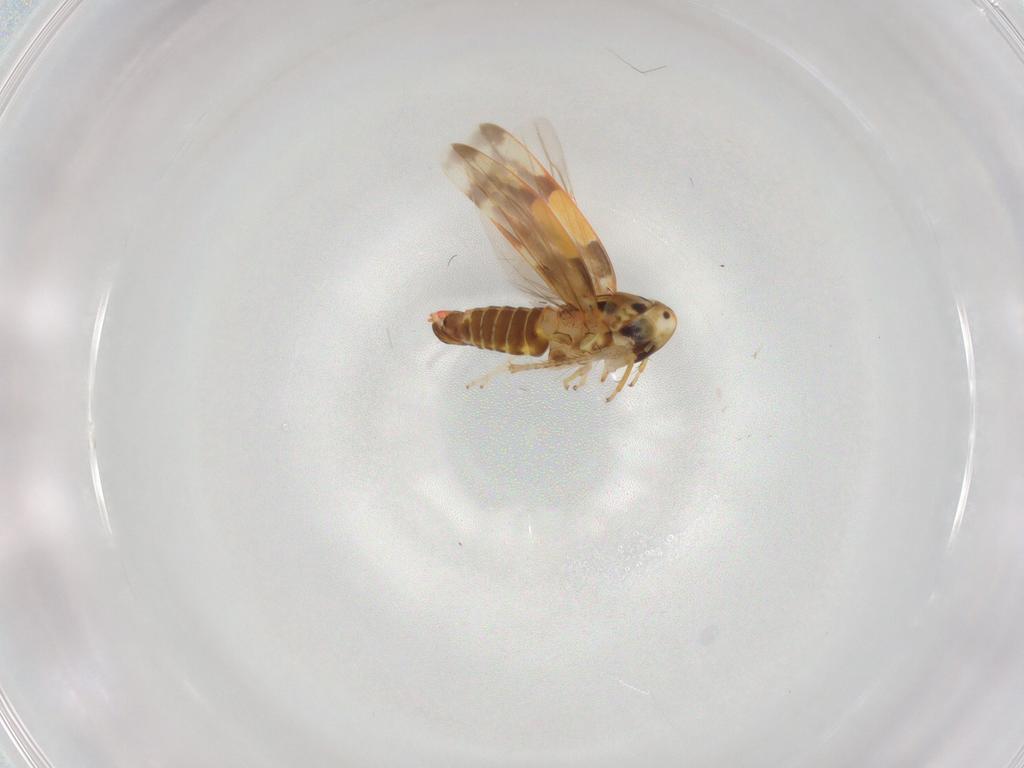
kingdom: Animalia
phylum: Arthropoda
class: Insecta
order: Hemiptera
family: Cicadellidae
